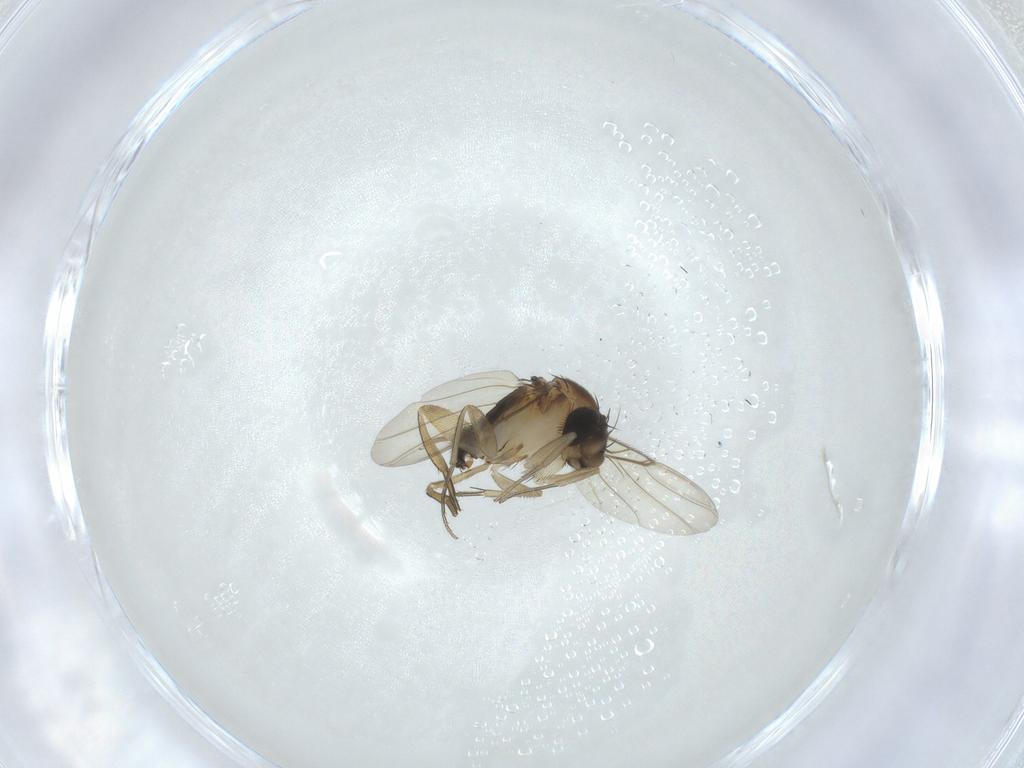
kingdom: Animalia
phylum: Arthropoda
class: Insecta
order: Diptera
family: Phoridae
